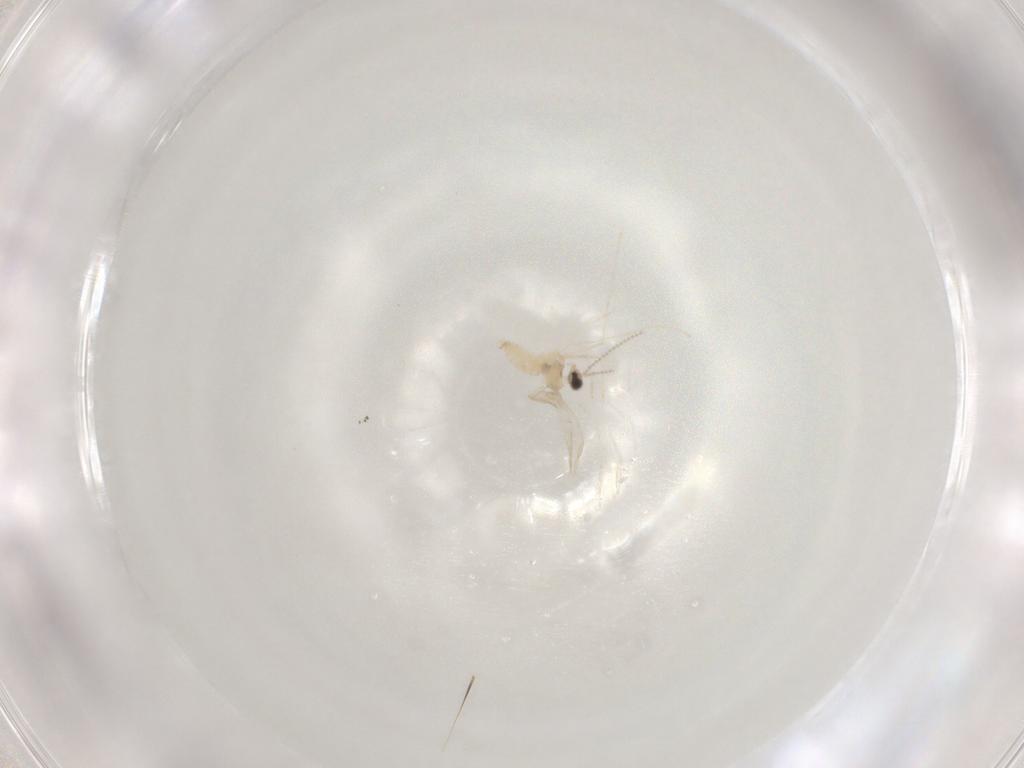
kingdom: Animalia
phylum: Arthropoda
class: Insecta
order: Diptera
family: Cecidomyiidae
